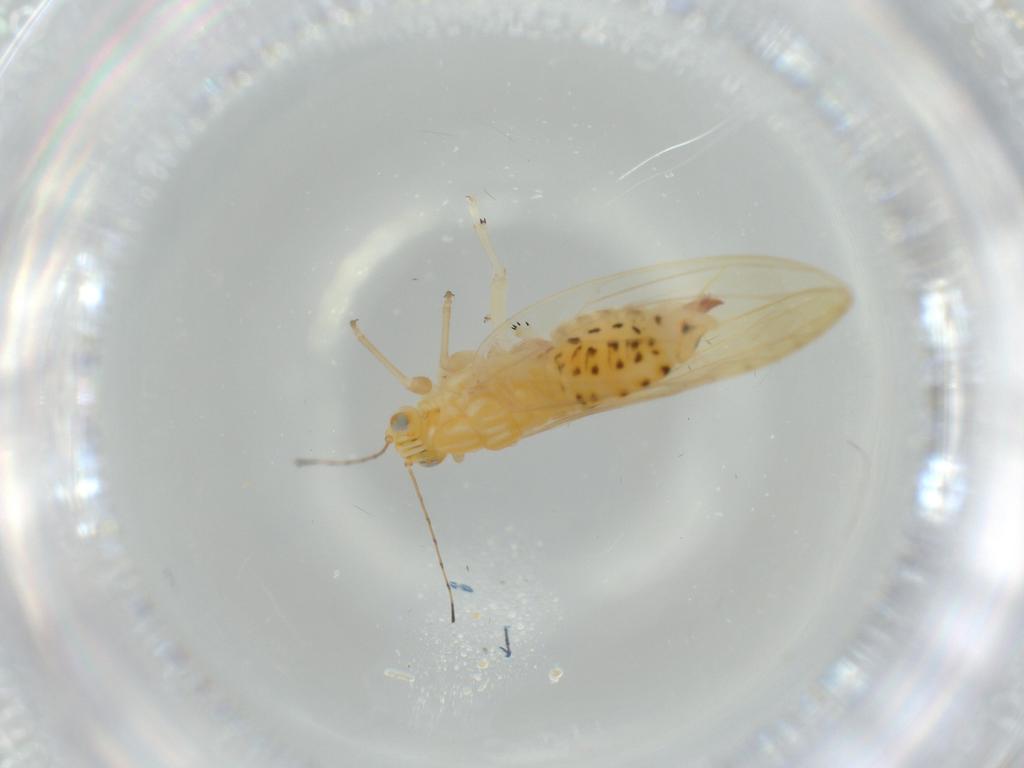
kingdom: Animalia
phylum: Arthropoda
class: Insecta
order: Hemiptera
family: Triozidae
